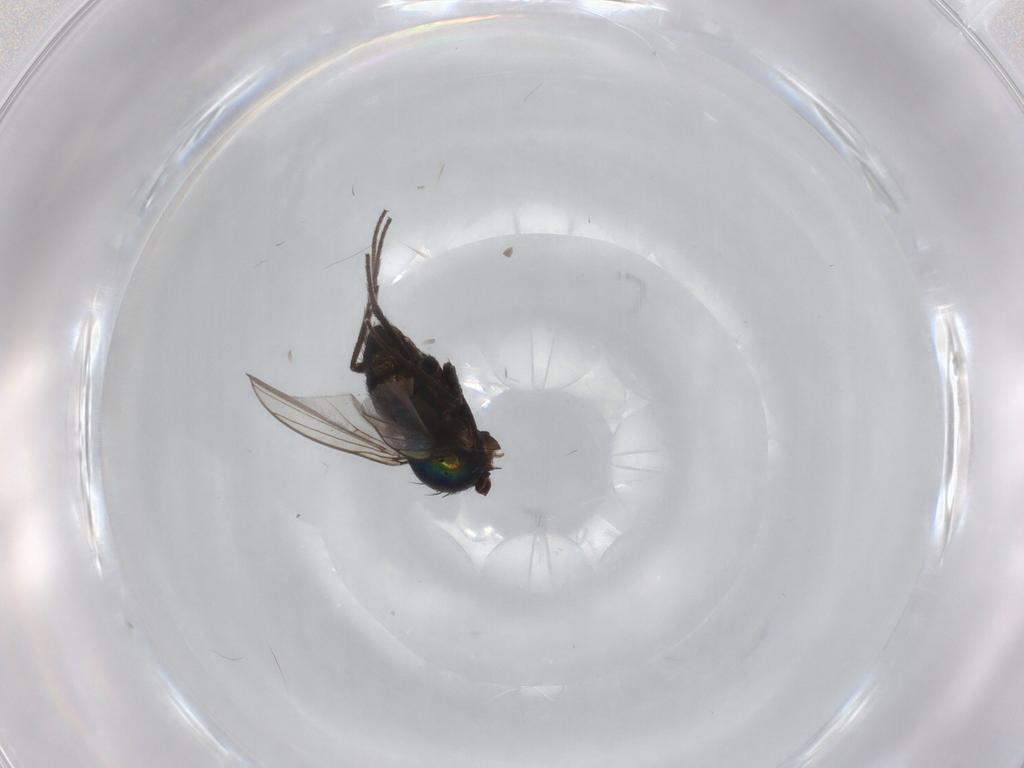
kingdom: Animalia
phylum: Arthropoda
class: Insecta
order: Diptera
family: Dolichopodidae
